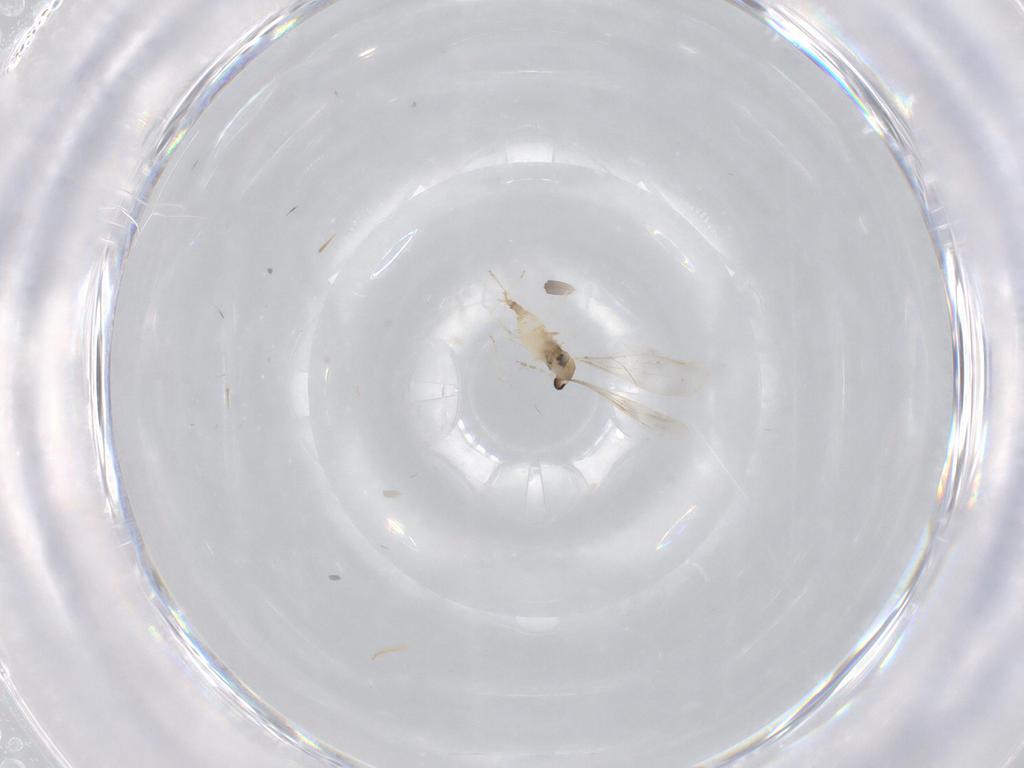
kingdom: Animalia
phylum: Arthropoda
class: Insecta
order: Diptera
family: Cecidomyiidae
